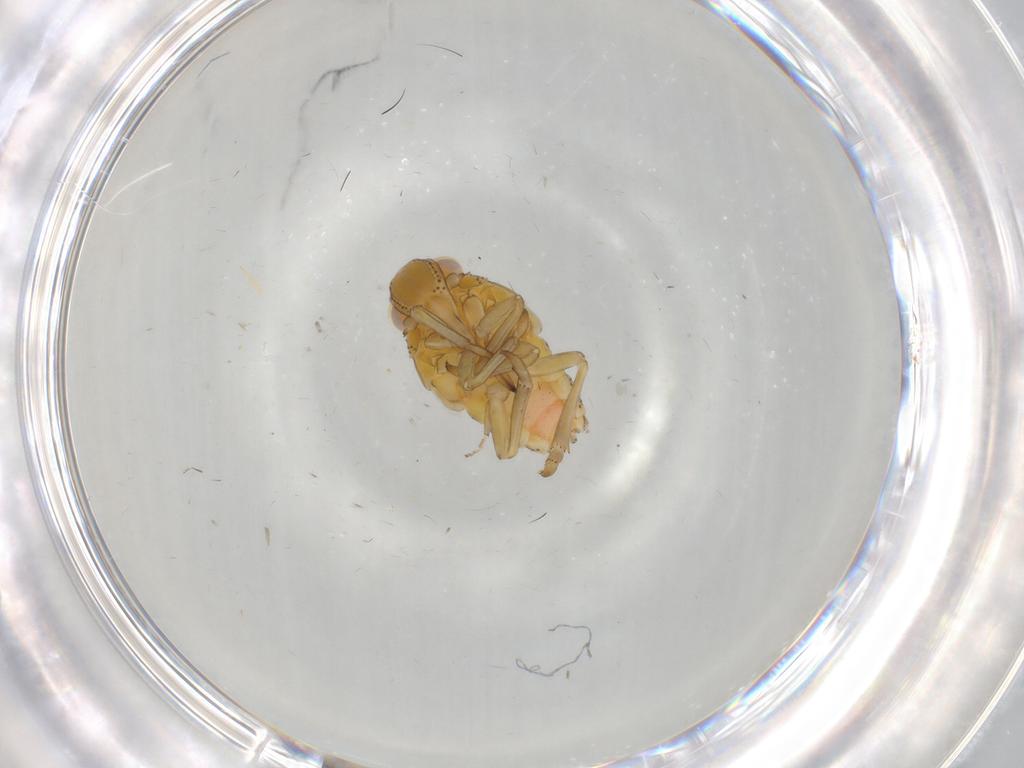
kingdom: Animalia
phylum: Arthropoda
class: Insecta
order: Hemiptera
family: Tropiduchidae
